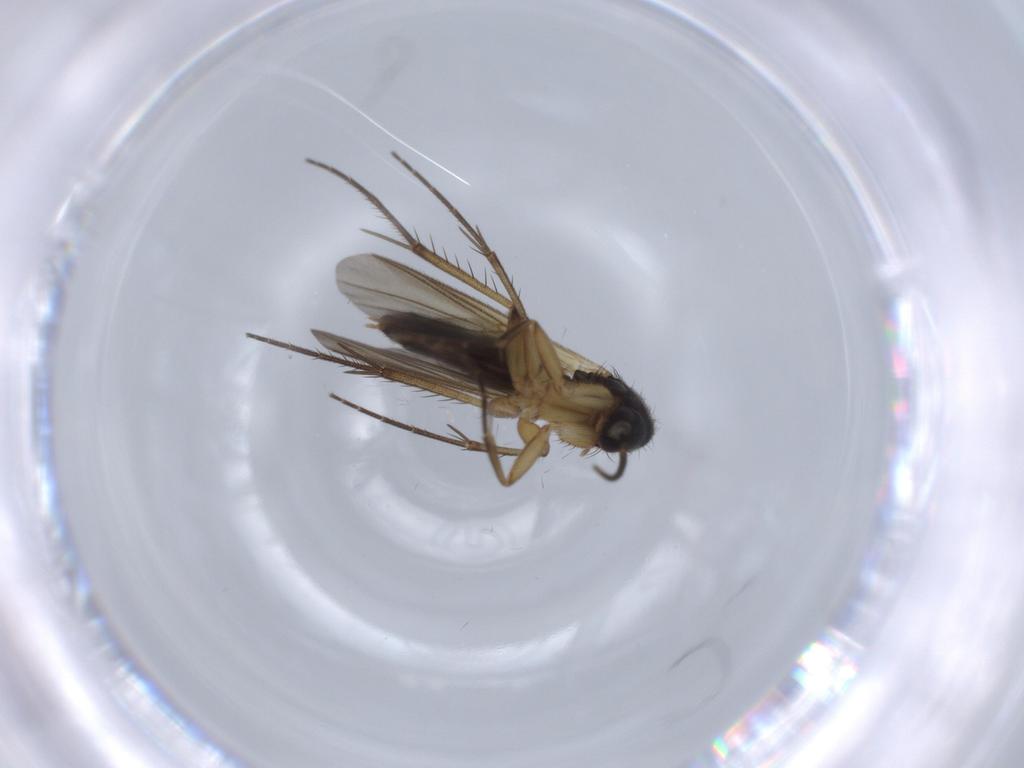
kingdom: Animalia
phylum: Arthropoda
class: Insecta
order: Diptera
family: Mycetophilidae
